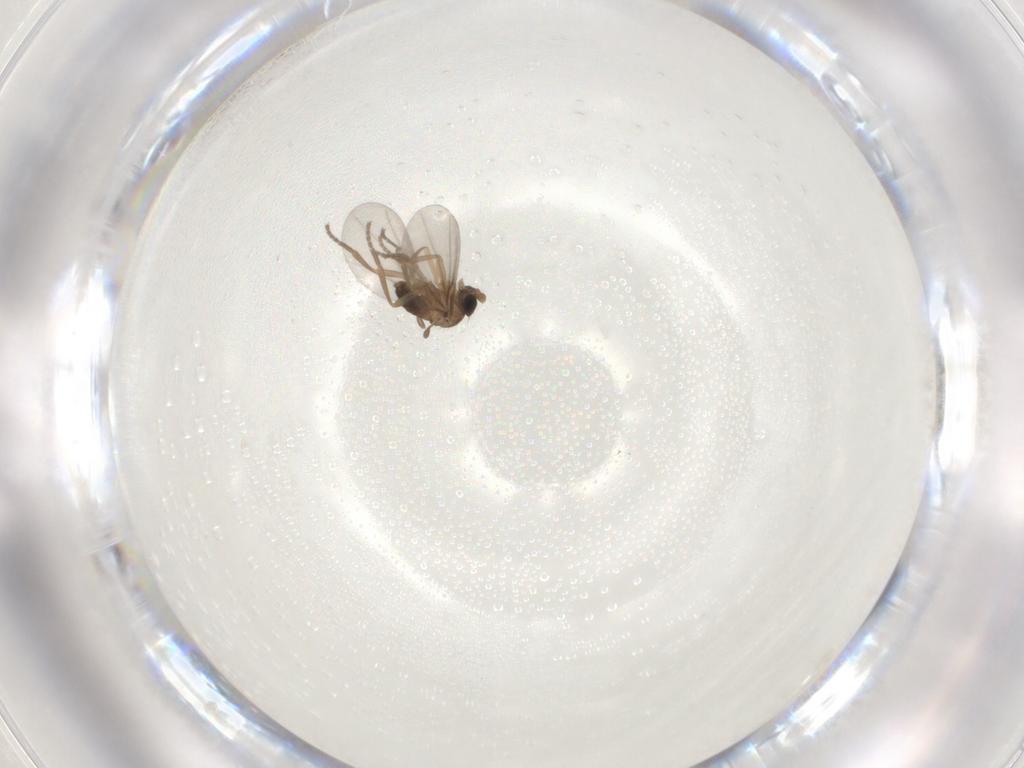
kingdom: Animalia
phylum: Arthropoda
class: Insecta
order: Diptera
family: Phoridae
